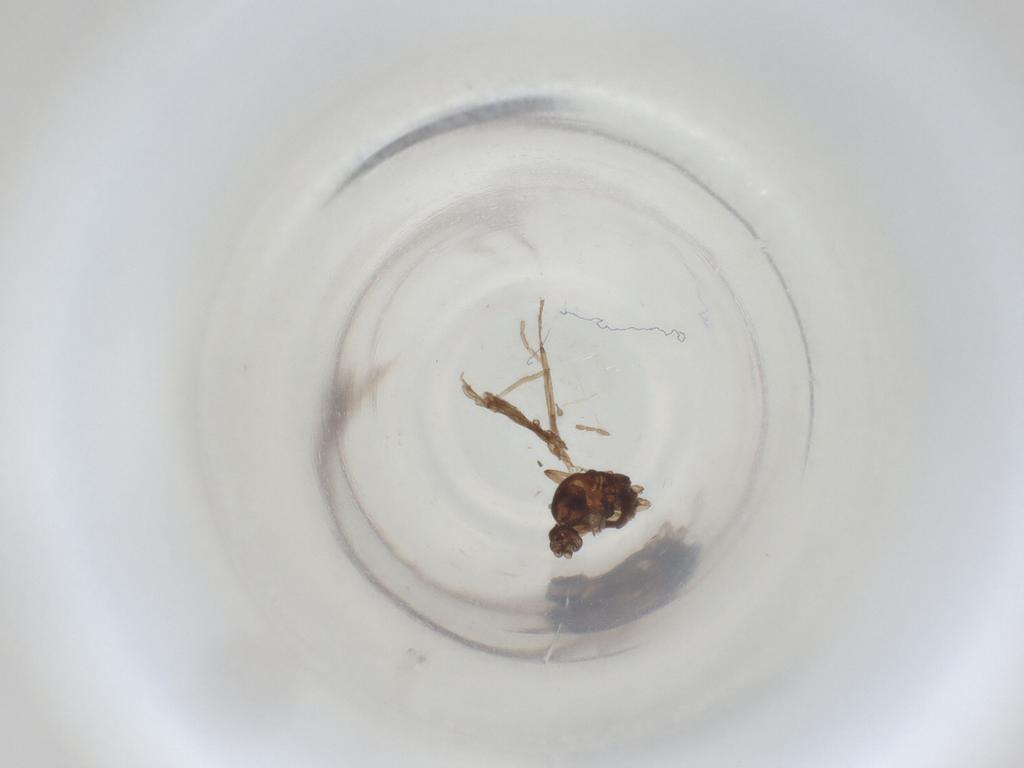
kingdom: Animalia
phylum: Arthropoda
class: Insecta
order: Diptera
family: Cecidomyiidae
